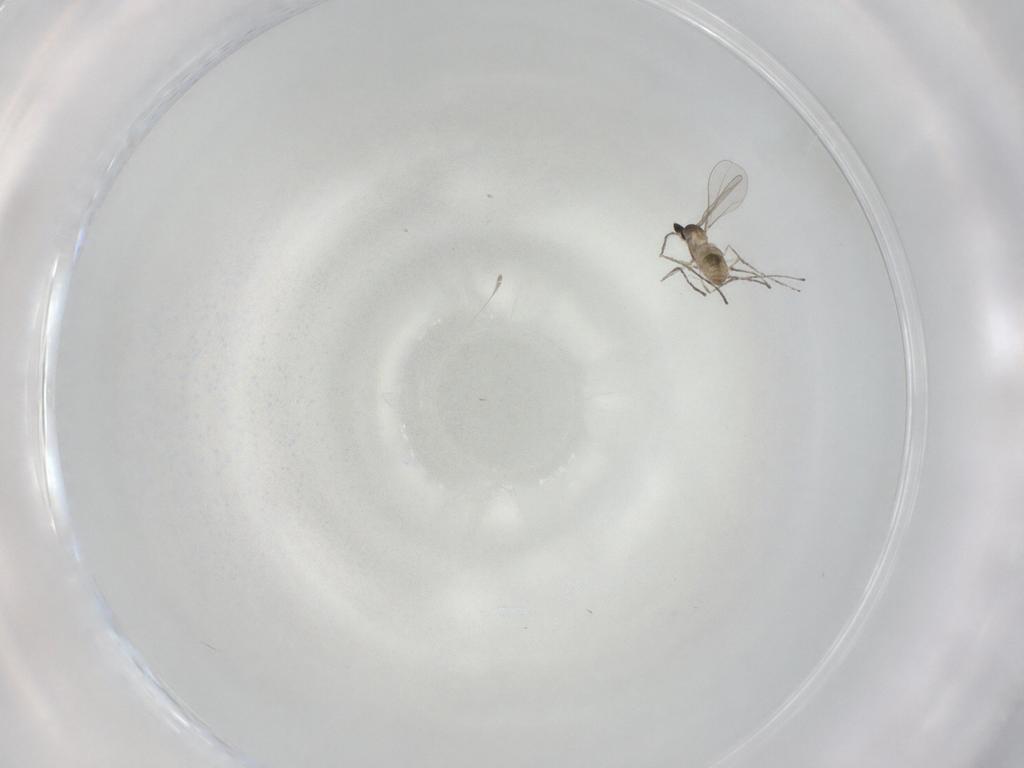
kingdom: Animalia
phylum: Arthropoda
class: Insecta
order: Diptera
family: Cecidomyiidae
